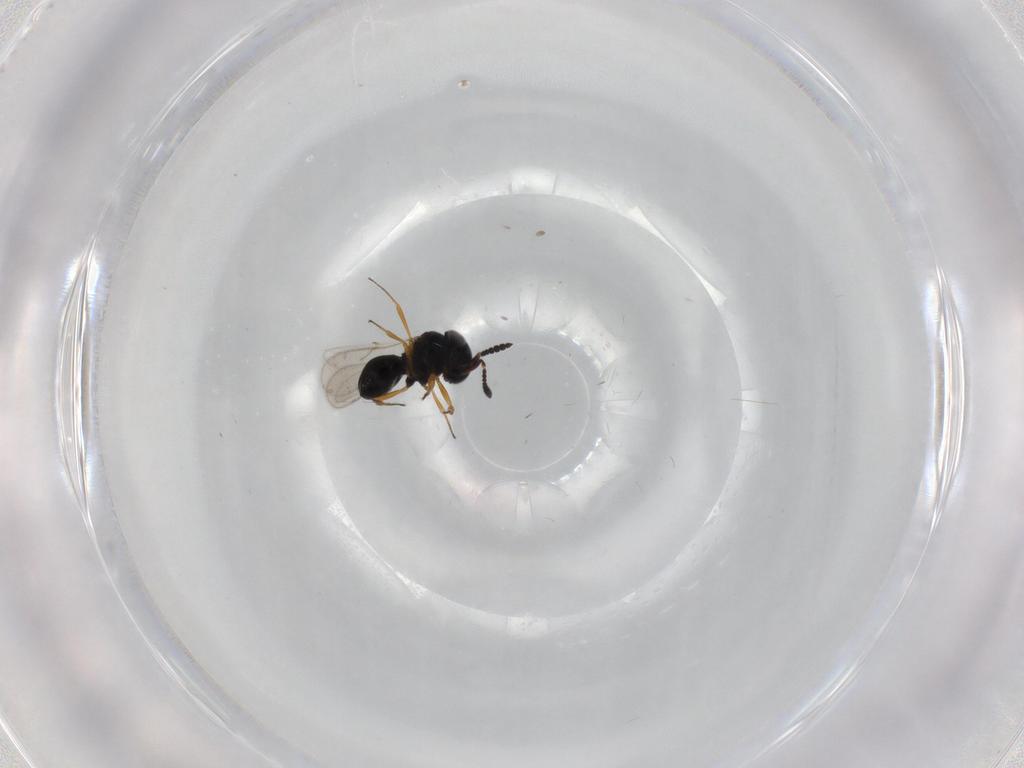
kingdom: Animalia
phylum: Arthropoda
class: Insecta
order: Hymenoptera
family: Scelionidae
